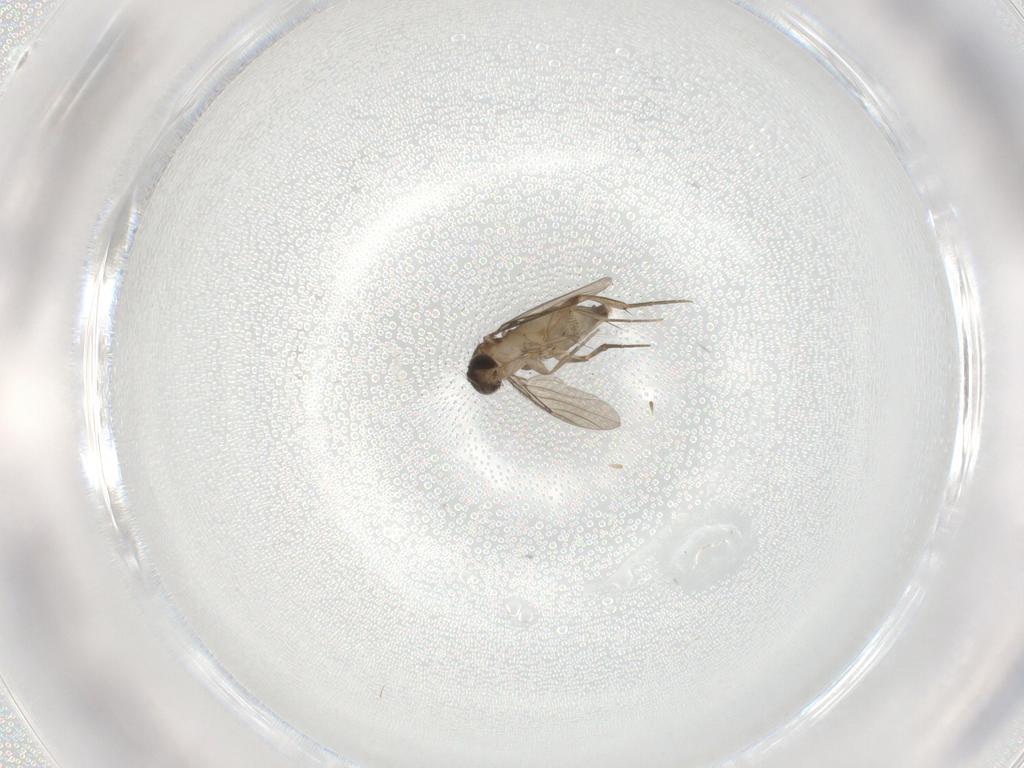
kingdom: Animalia
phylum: Arthropoda
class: Insecta
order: Diptera
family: Phoridae
